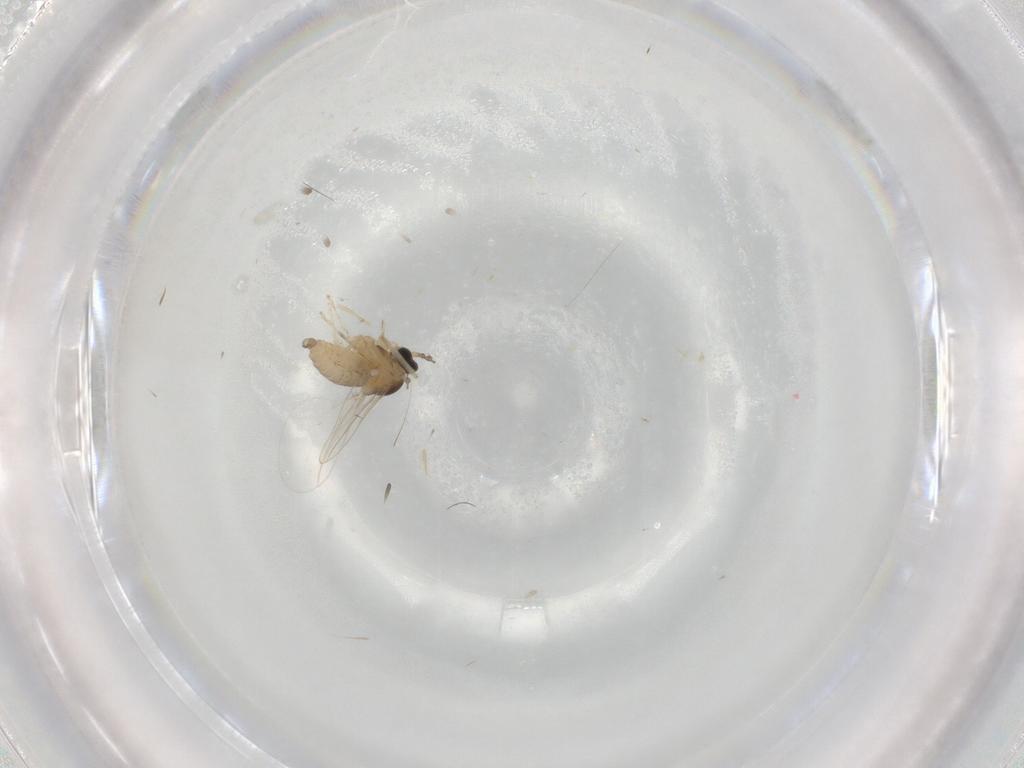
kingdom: Animalia
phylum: Arthropoda
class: Insecta
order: Diptera
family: Cecidomyiidae
